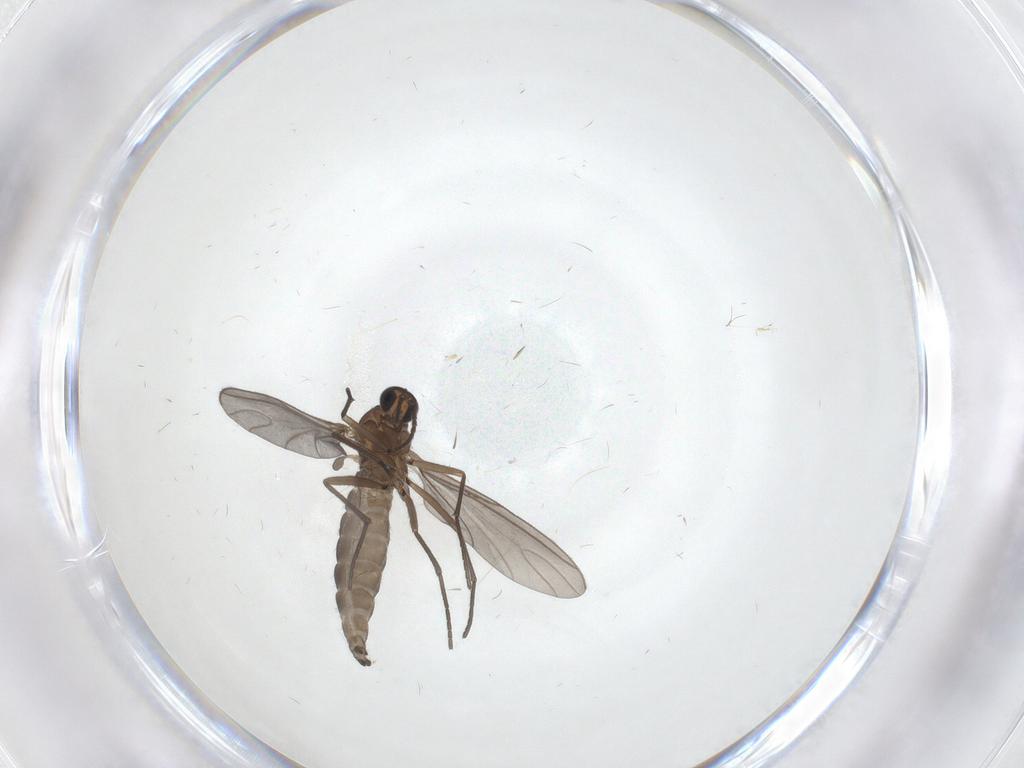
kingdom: Animalia
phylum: Arthropoda
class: Insecta
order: Diptera
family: Sciaridae
